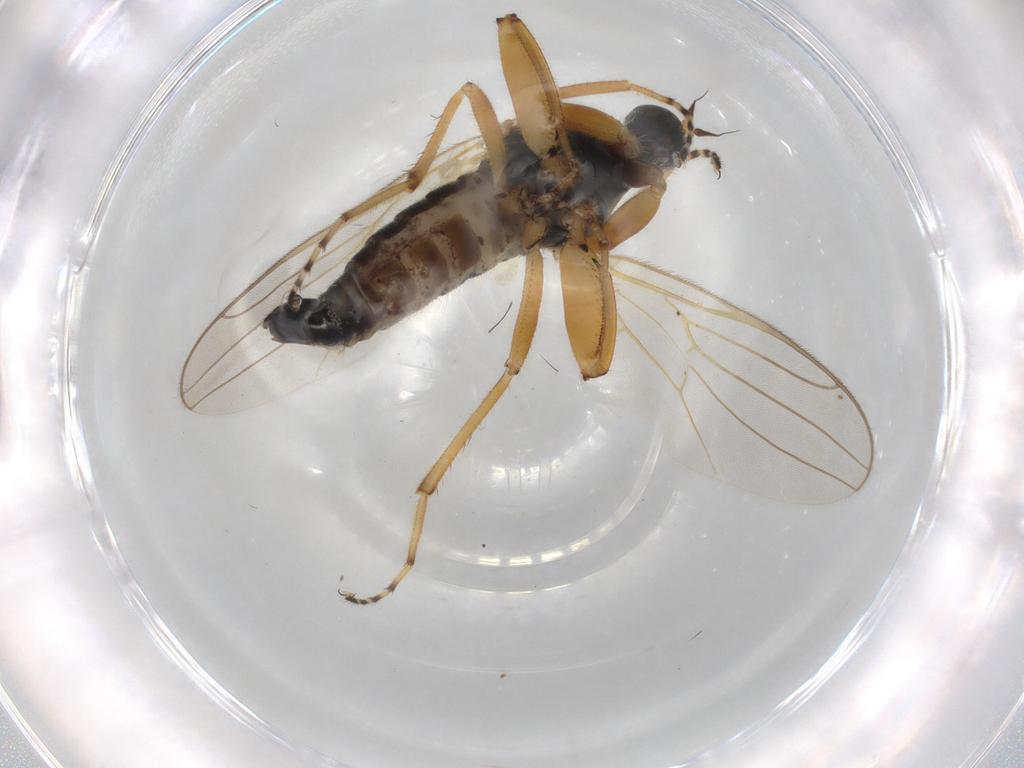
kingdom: Animalia
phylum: Arthropoda
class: Insecta
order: Diptera
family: Hybotidae
